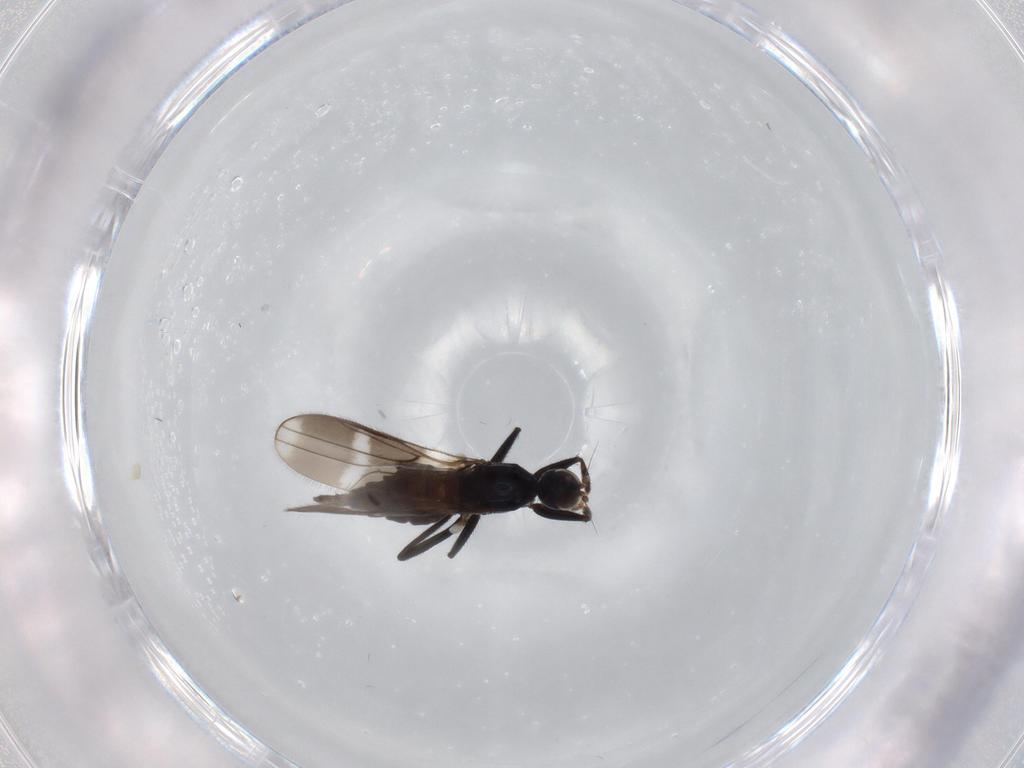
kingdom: Animalia
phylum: Arthropoda
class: Insecta
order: Diptera
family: Hybotidae
